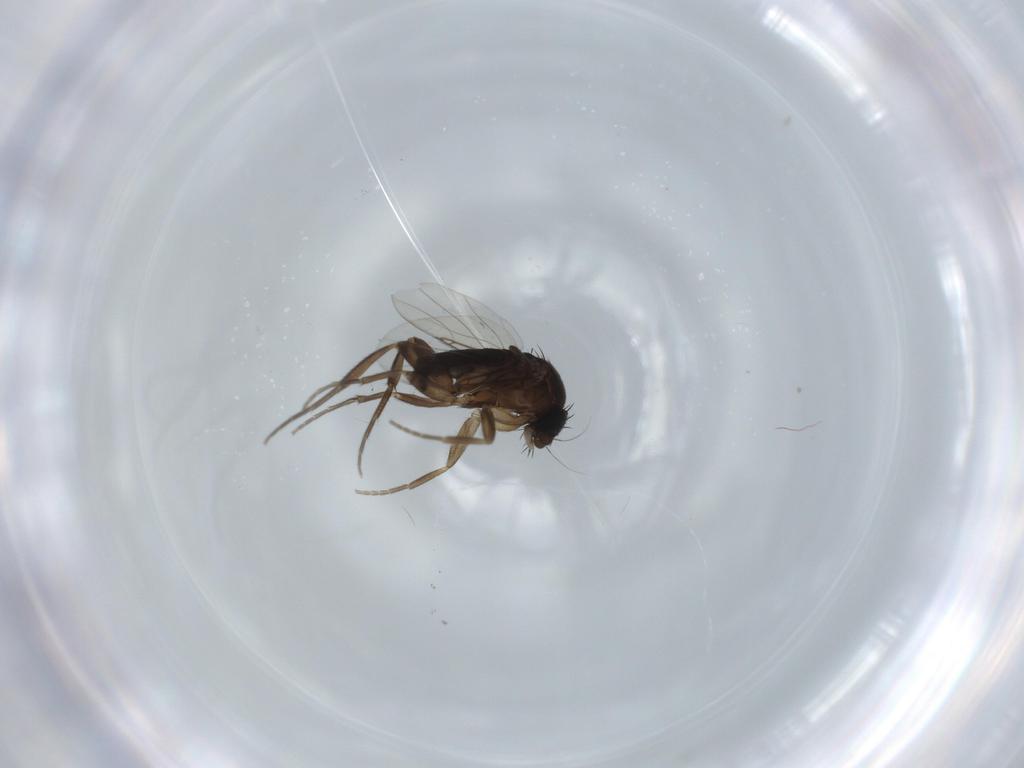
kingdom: Animalia
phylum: Arthropoda
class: Insecta
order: Diptera
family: Phoridae
